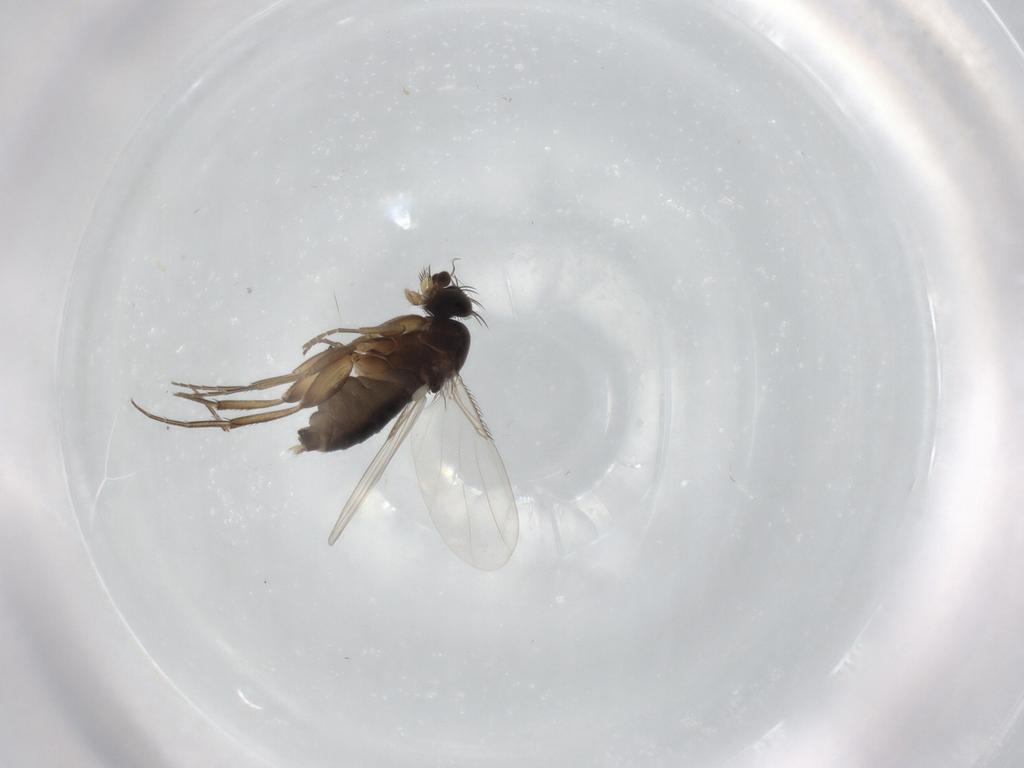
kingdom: Animalia
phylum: Arthropoda
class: Insecta
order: Diptera
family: Phoridae
